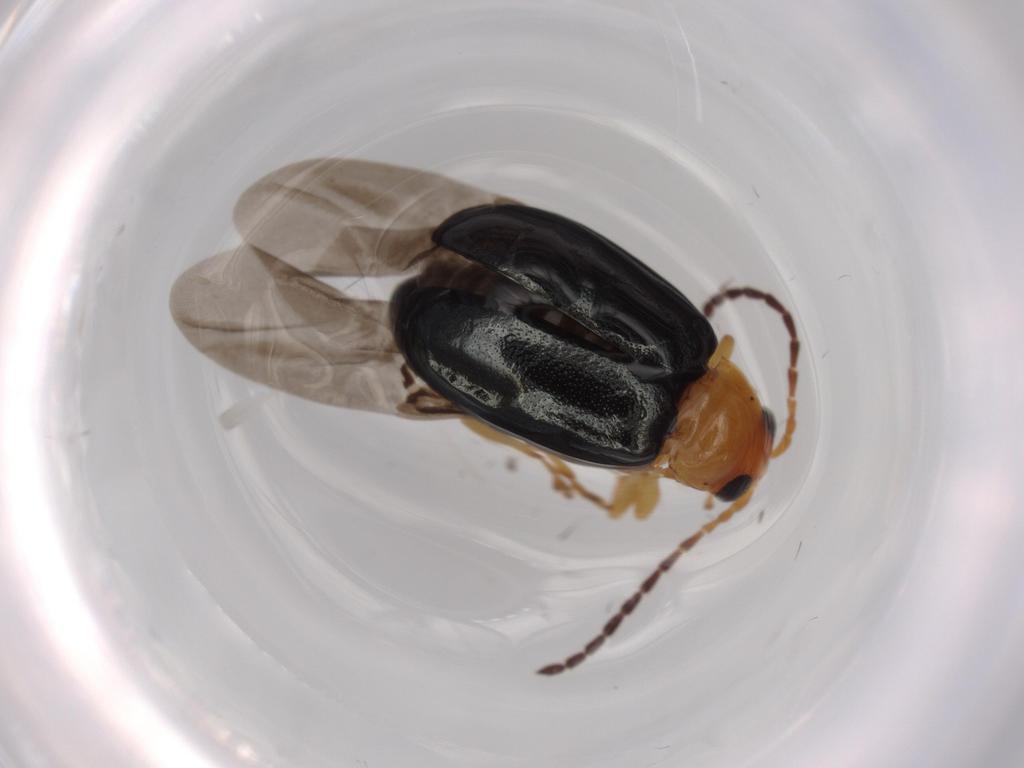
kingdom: Animalia
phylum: Arthropoda
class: Insecta
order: Coleoptera
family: Chrysomelidae
